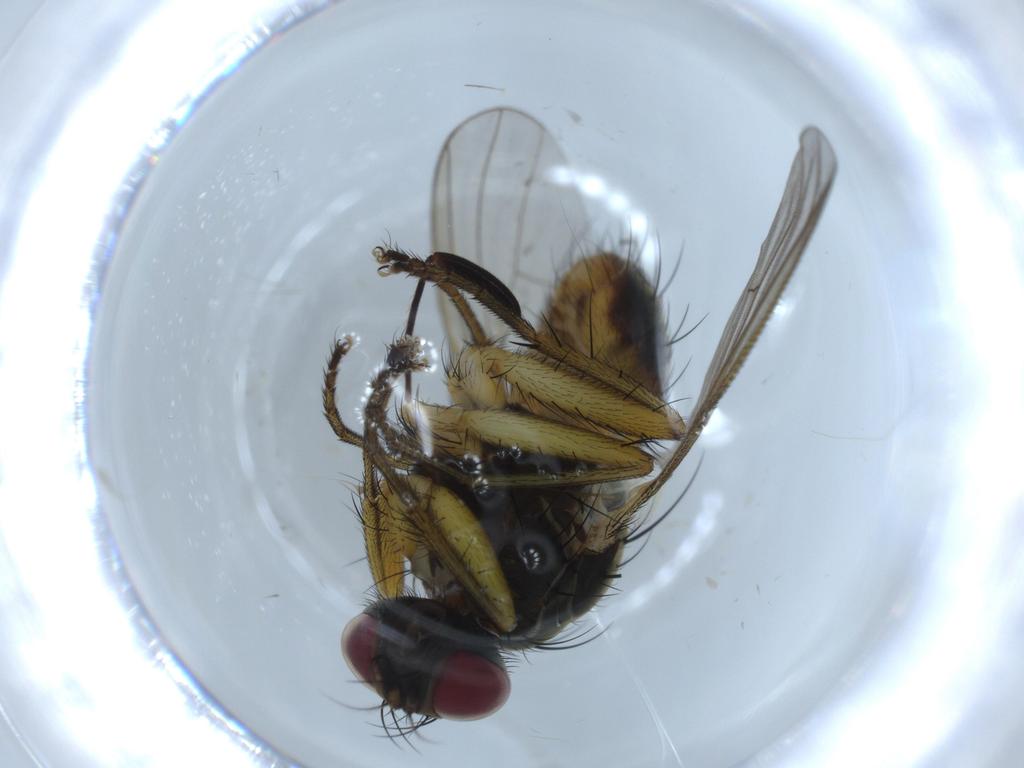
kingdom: Animalia
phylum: Arthropoda
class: Insecta
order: Diptera
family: Muscidae
